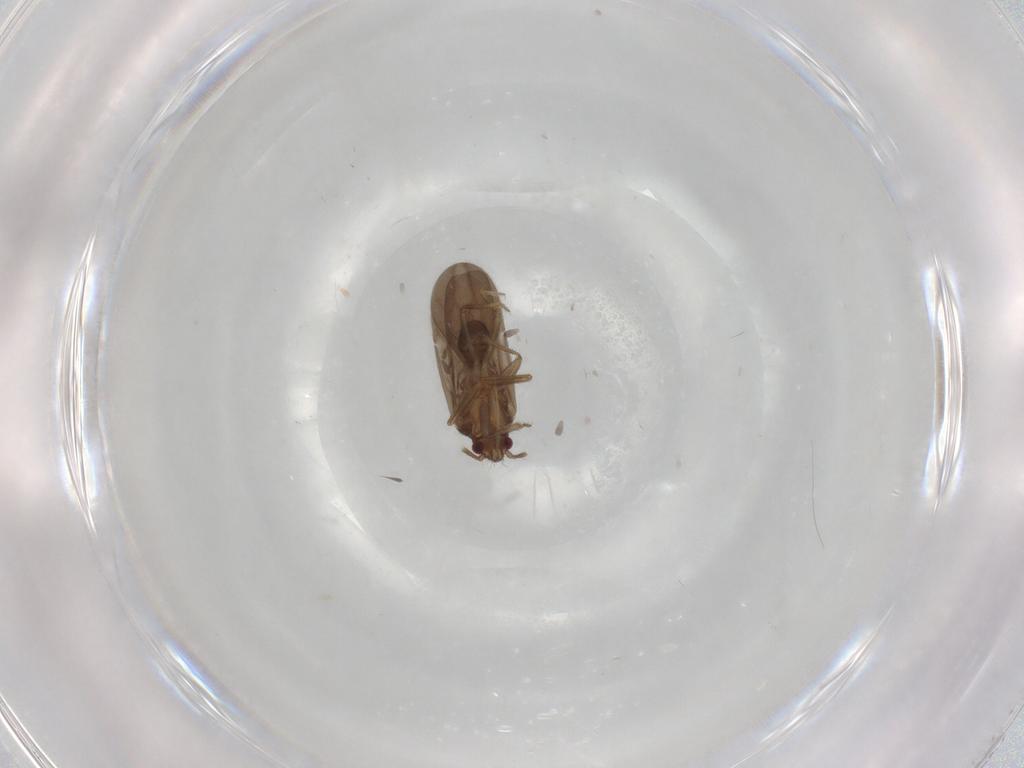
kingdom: Animalia
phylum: Arthropoda
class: Insecta
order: Hemiptera
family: Ceratocombidae
